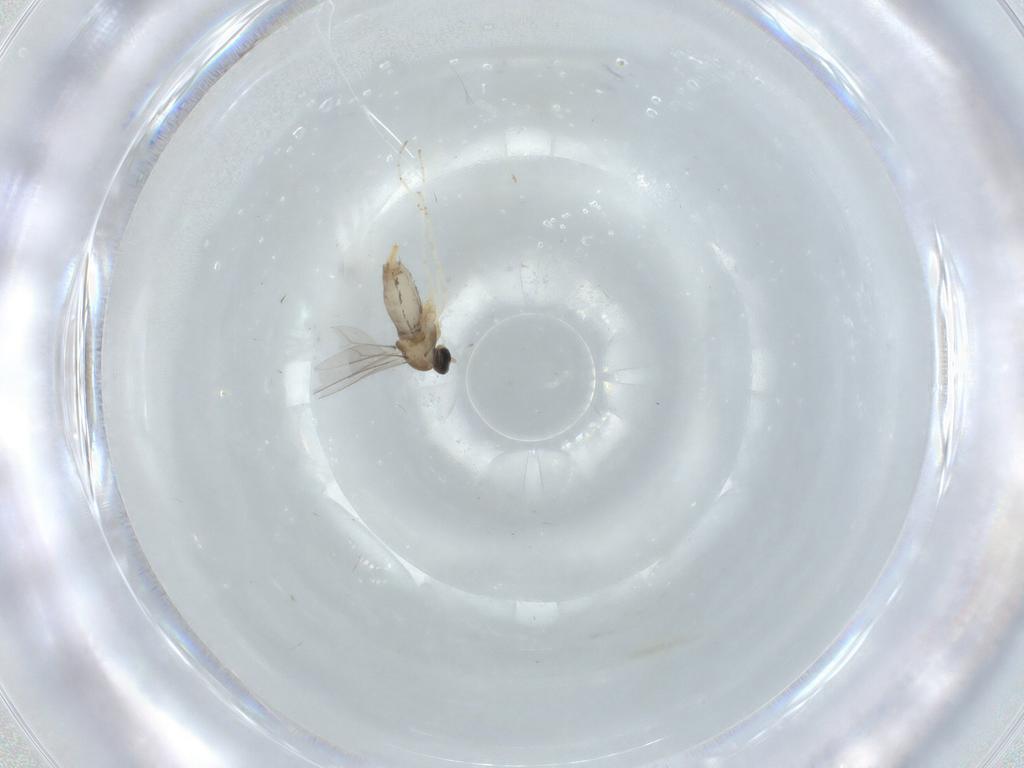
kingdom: Animalia
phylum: Arthropoda
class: Insecta
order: Diptera
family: Cecidomyiidae
